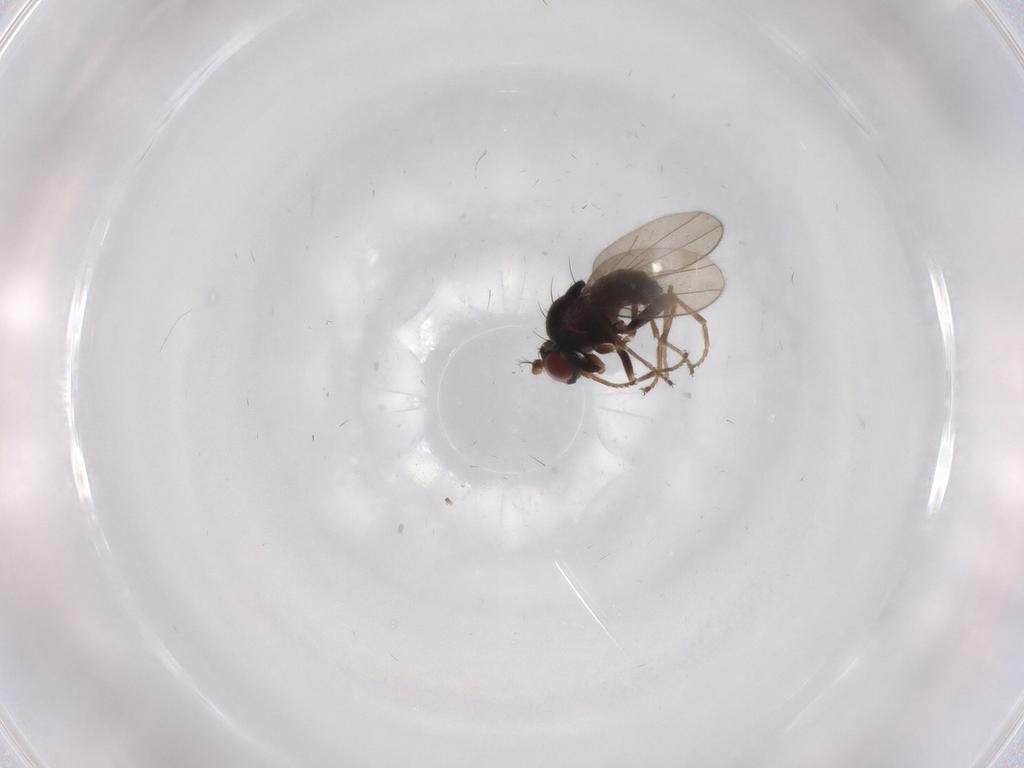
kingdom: Animalia
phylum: Arthropoda
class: Insecta
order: Diptera
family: Ephydridae
